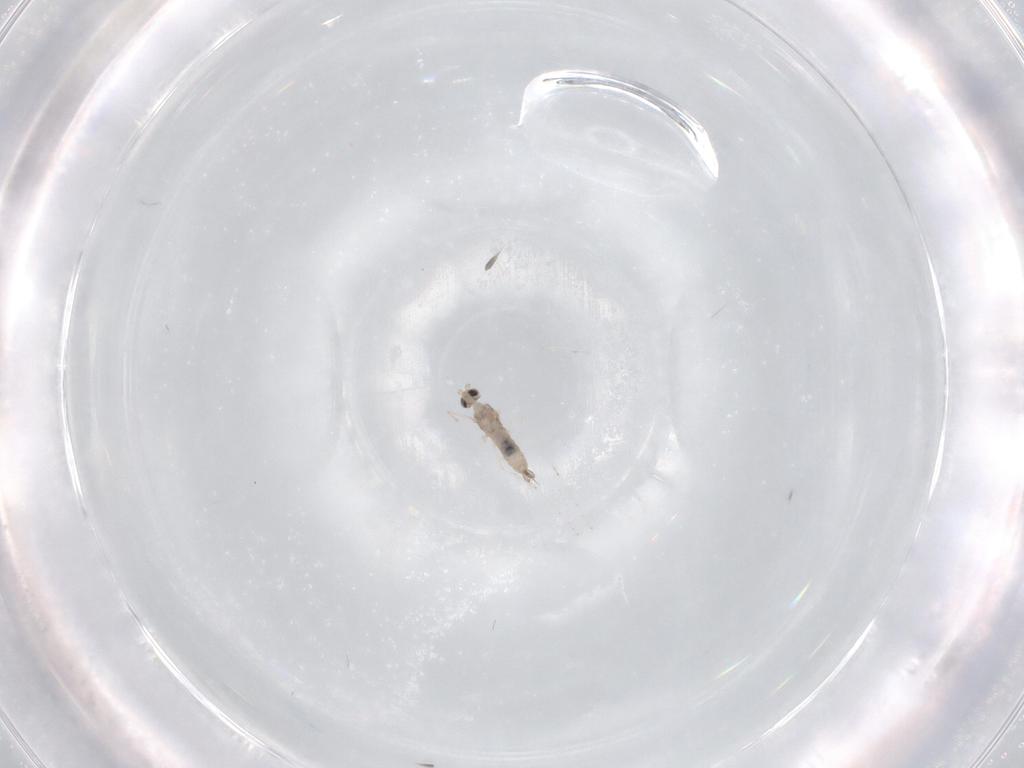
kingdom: Animalia
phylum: Arthropoda
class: Insecta
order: Diptera
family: Cecidomyiidae
